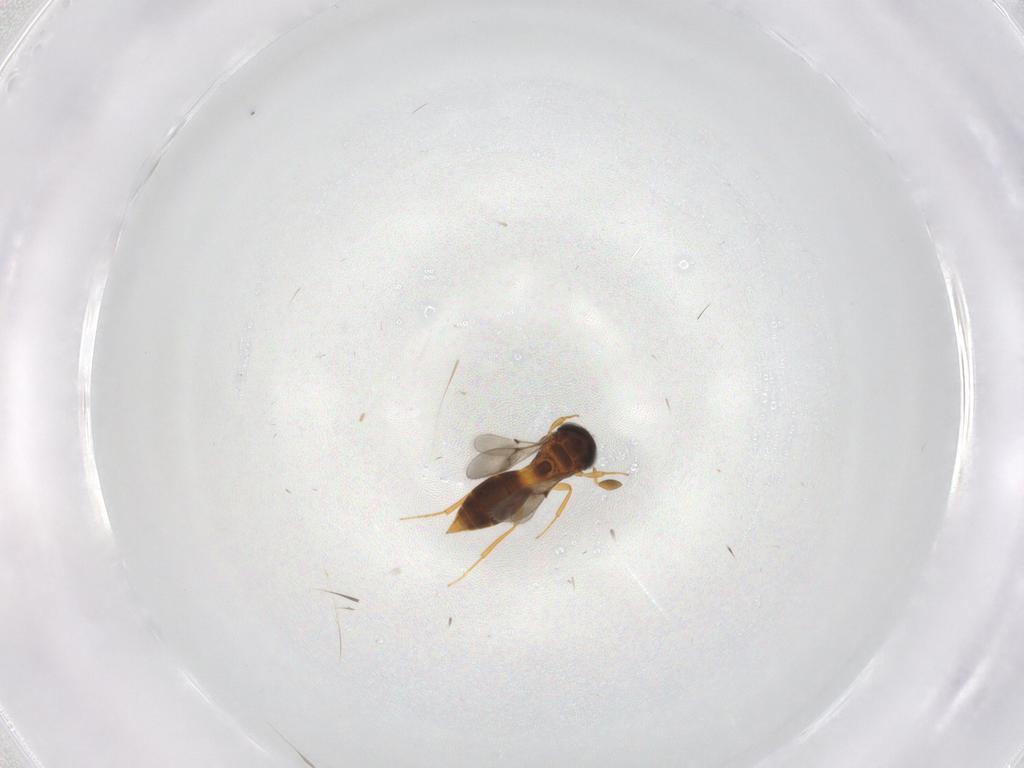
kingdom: Animalia
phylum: Arthropoda
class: Insecta
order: Hymenoptera
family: Scelionidae
